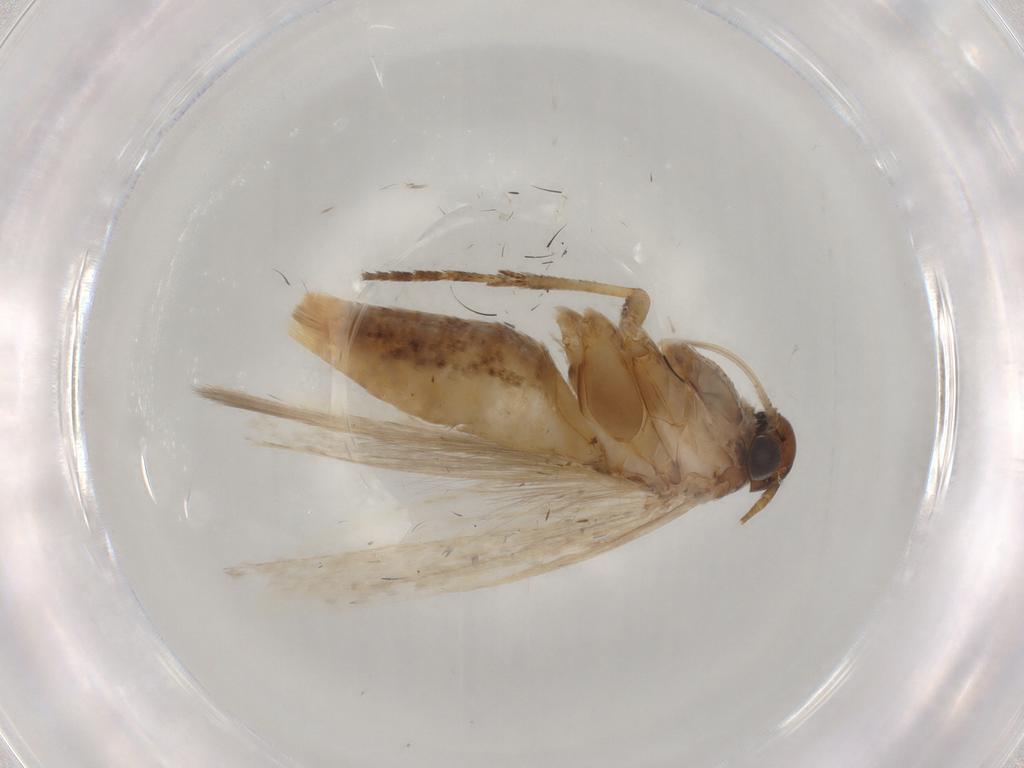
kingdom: Animalia
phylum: Arthropoda
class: Insecta
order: Lepidoptera
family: Gelechiidae
